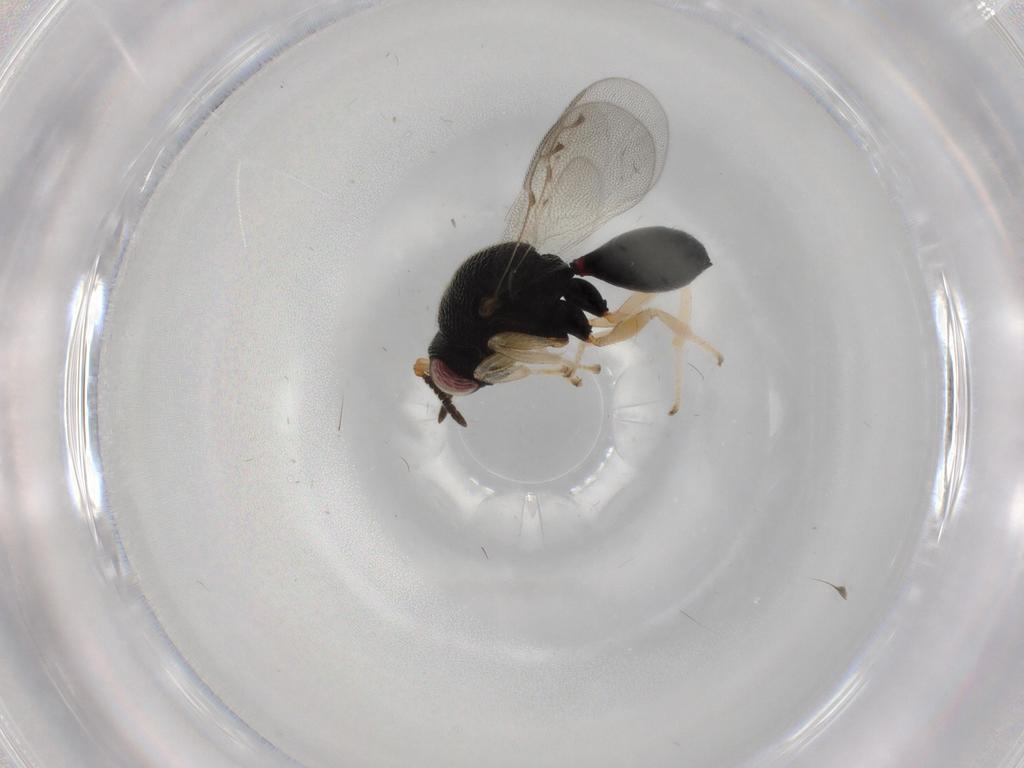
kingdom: Animalia
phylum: Arthropoda
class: Insecta
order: Hymenoptera
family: Eurytomidae
